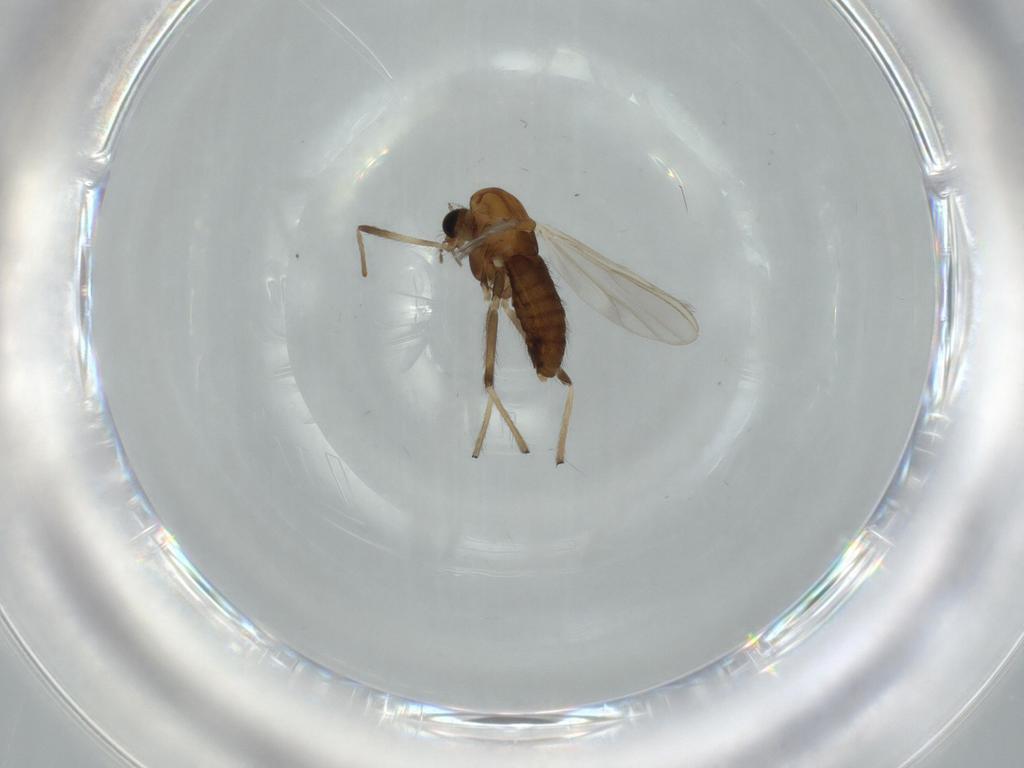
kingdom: Animalia
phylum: Arthropoda
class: Insecta
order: Diptera
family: Chironomidae
